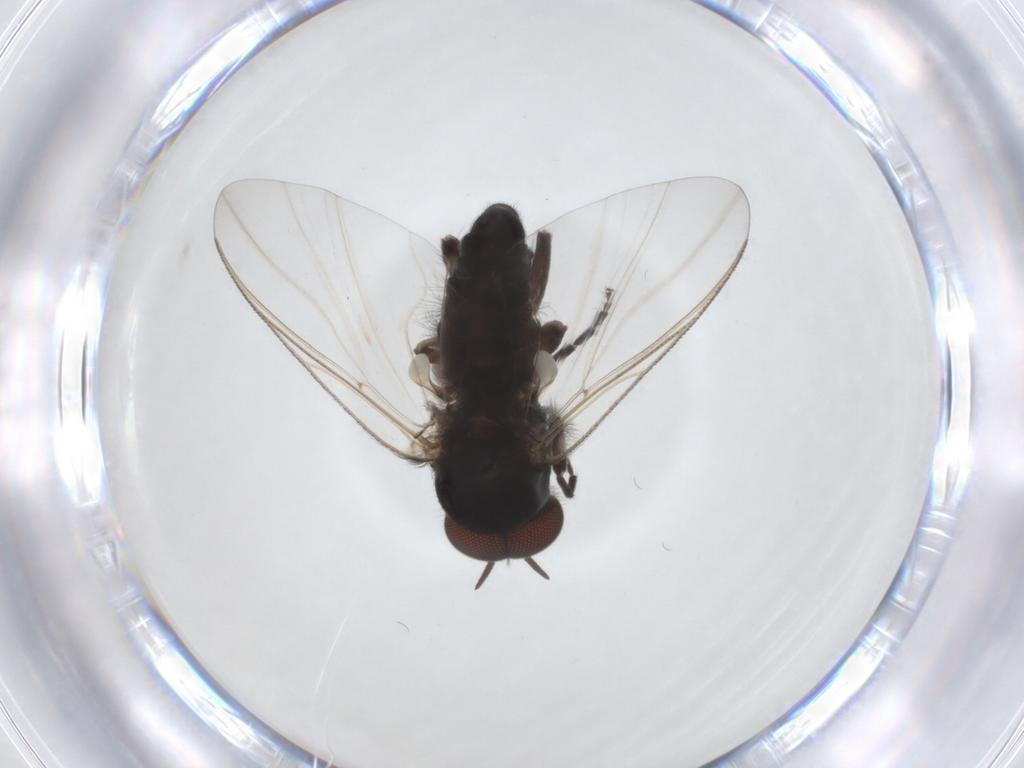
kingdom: Animalia
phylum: Arthropoda
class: Insecta
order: Diptera
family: Simuliidae
